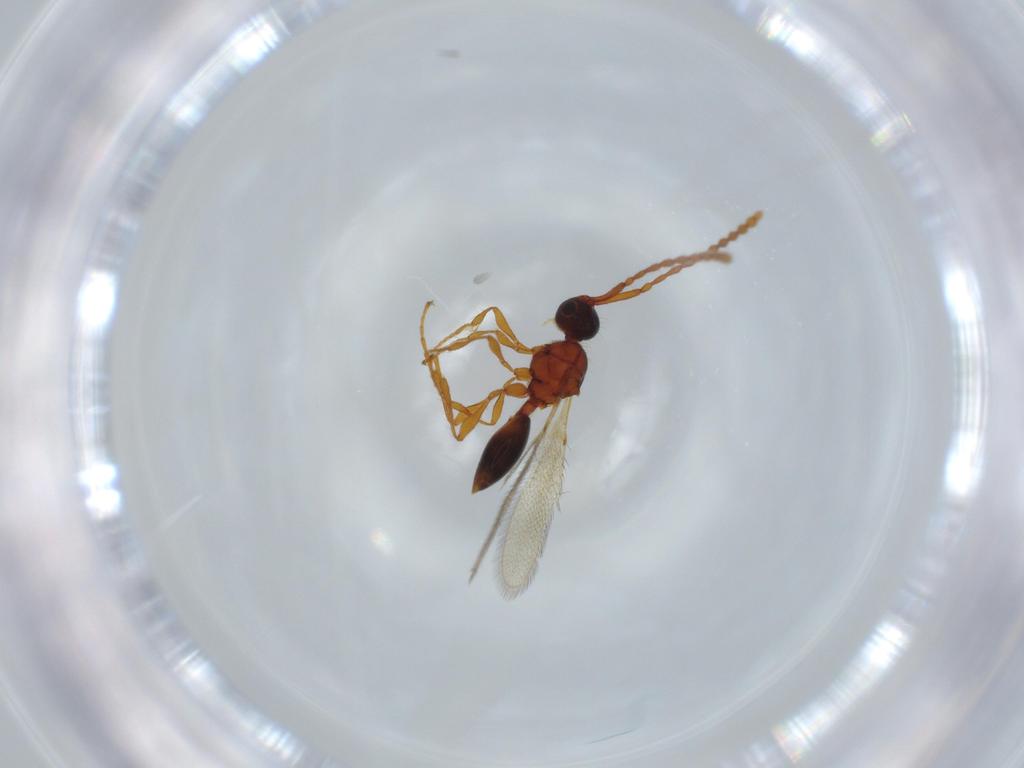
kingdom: Animalia
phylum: Arthropoda
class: Insecta
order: Hymenoptera
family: Diapriidae
